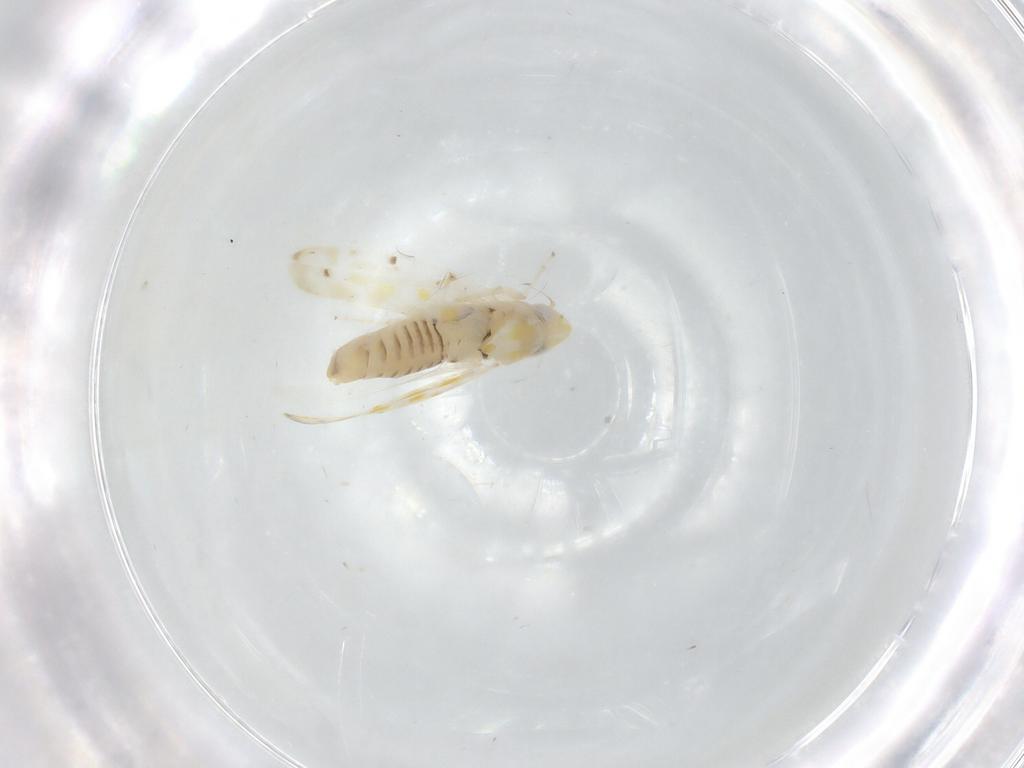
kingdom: Animalia
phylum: Arthropoda
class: Insecta
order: Hemiptera
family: Cicadellidae
